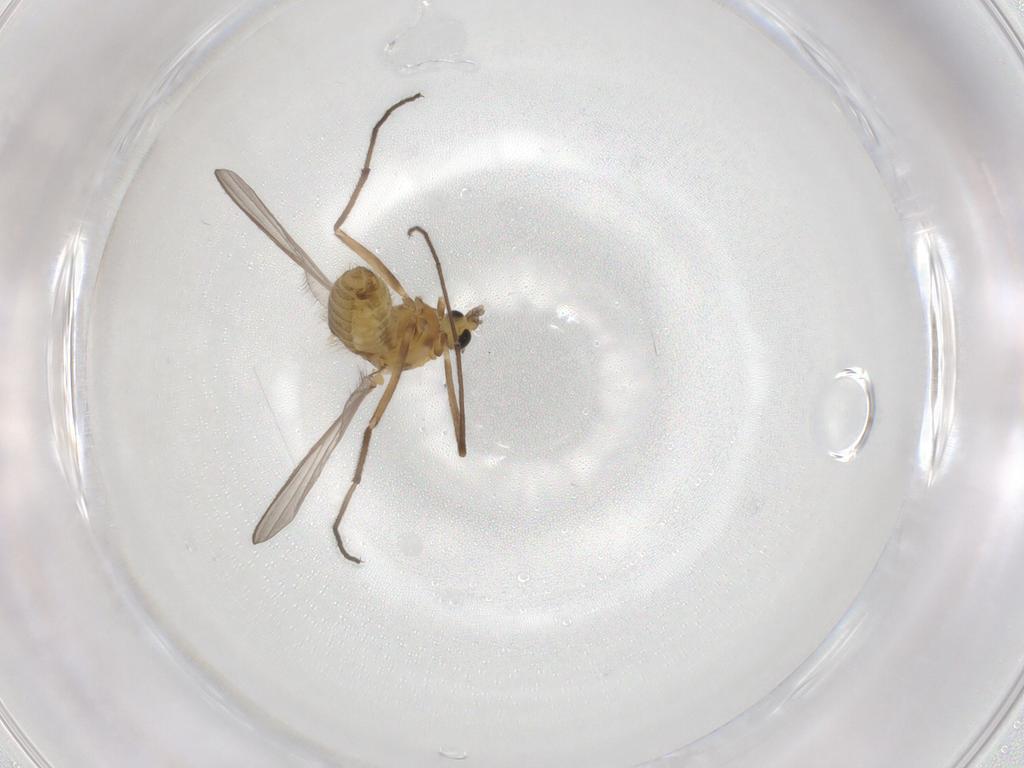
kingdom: Animalia
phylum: Arthropoda
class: Insecta
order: Diptera
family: Chironomidae
